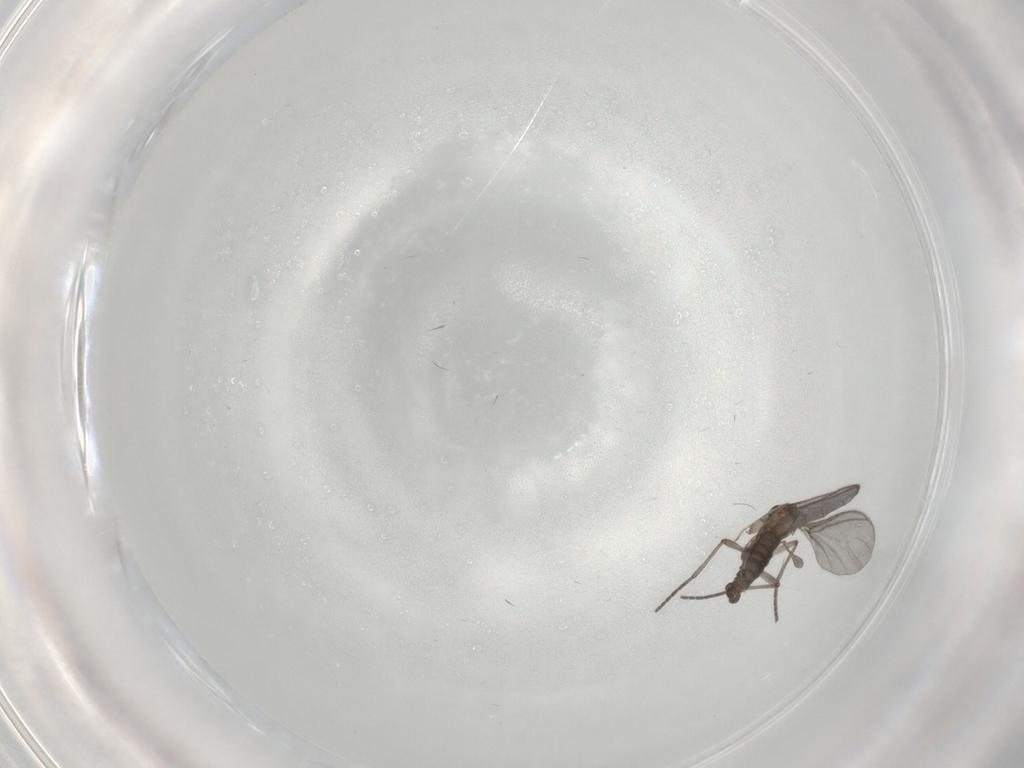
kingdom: Animalia
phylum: Arthropoda
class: Insecta
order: Diptera
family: Sciaridae
